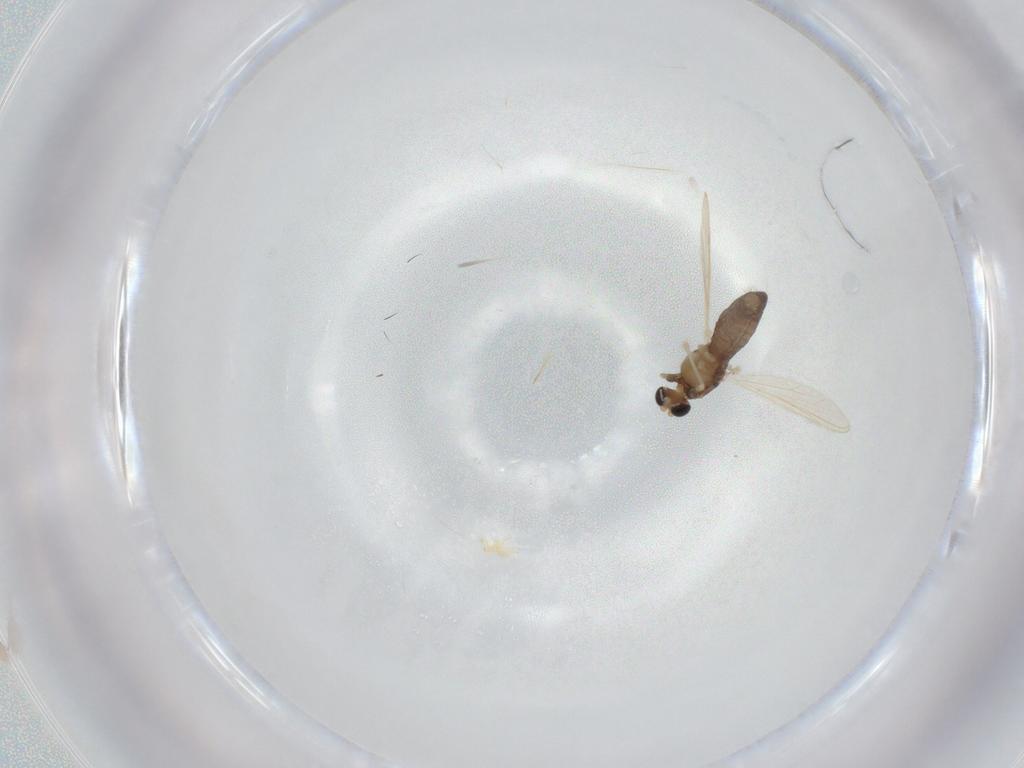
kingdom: Animalia
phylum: Arthropoda
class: Insecta
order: Diptera
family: Chironomidae
